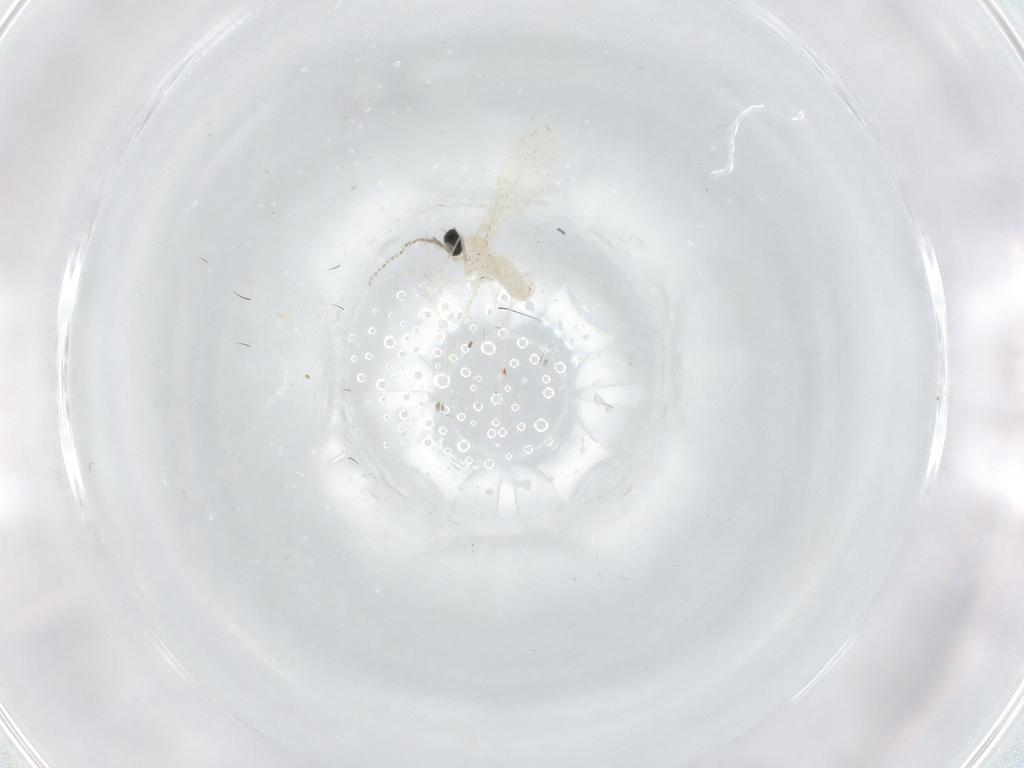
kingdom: Animalia
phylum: Arthropoda
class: Insecta
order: Diptera
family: Cecidomyiidae
